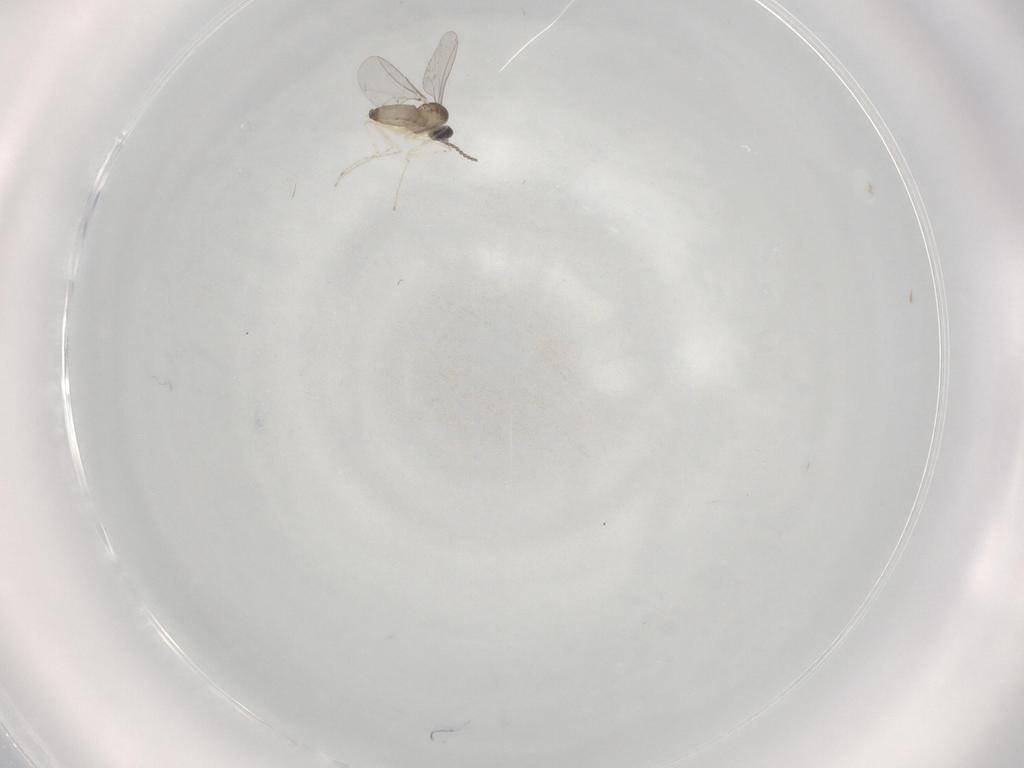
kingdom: Animalia
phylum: Arthropoda
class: Insecta
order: Diptera
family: Cecidomyiidae
